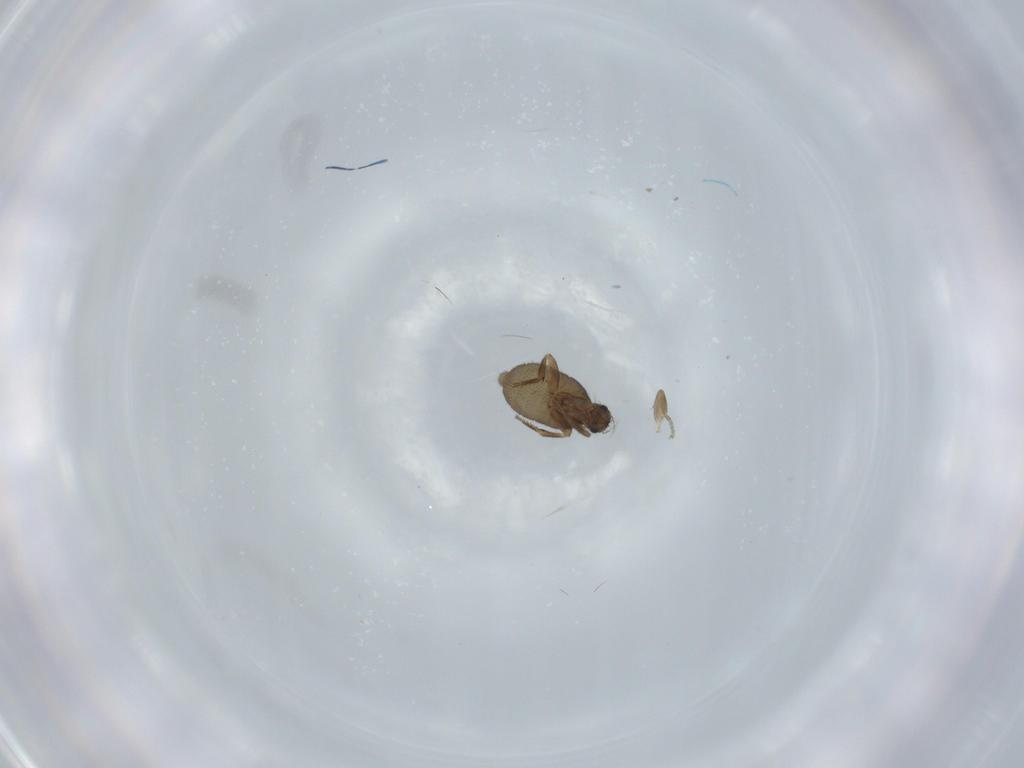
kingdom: Animalia
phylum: Arthropoda
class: Insecta
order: Diptera
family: Phoridae
